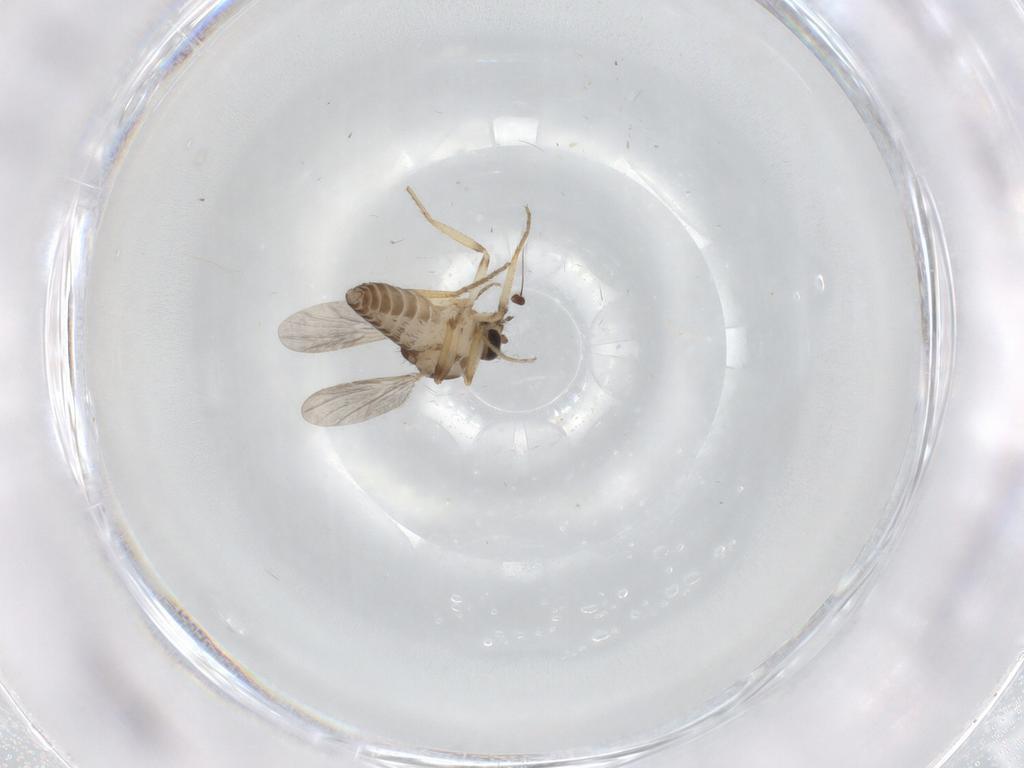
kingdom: Animalia
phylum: Arthropoda
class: Insecta
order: Diptera
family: Ceratopogonidae
